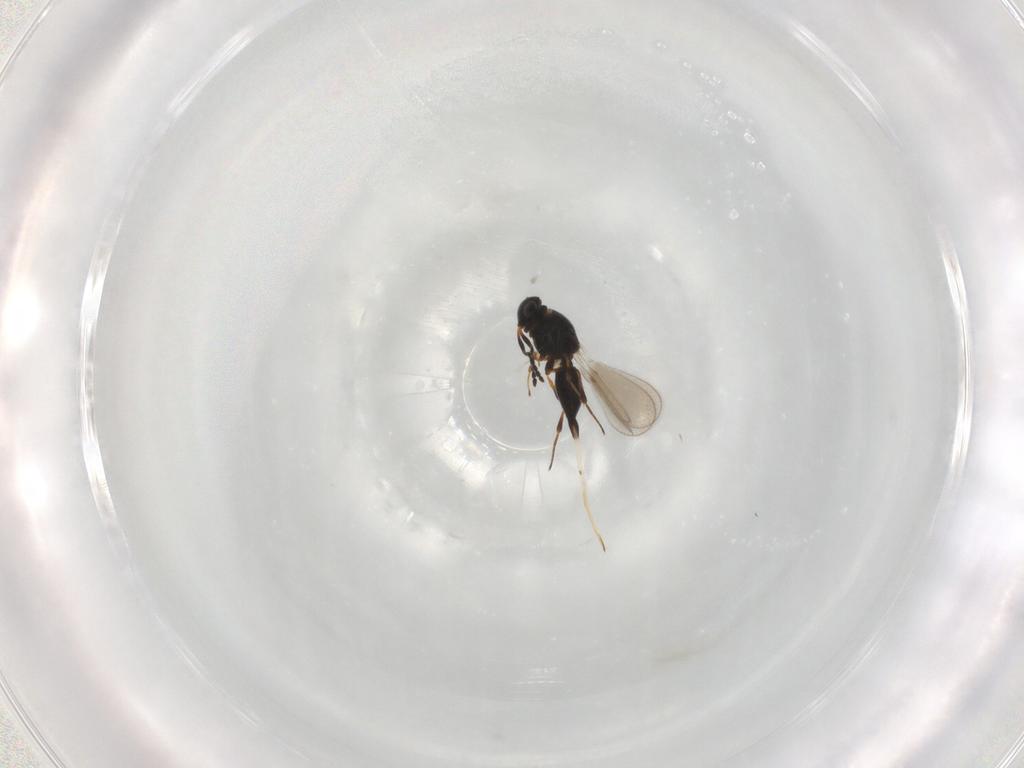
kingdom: Animalia
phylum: Arthropoda
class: Insecta
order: Hymenoptera
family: Platygastridae
